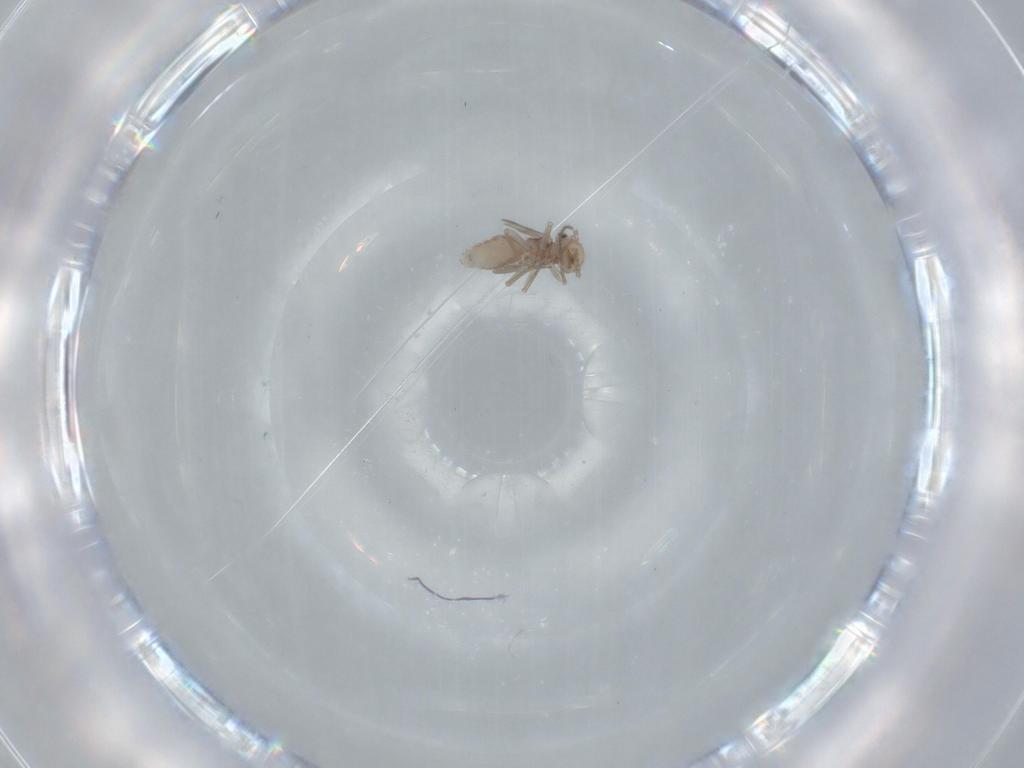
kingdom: Animalia
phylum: Arthropoda
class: Insecta
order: Psocodea
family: Ectopsocidae
